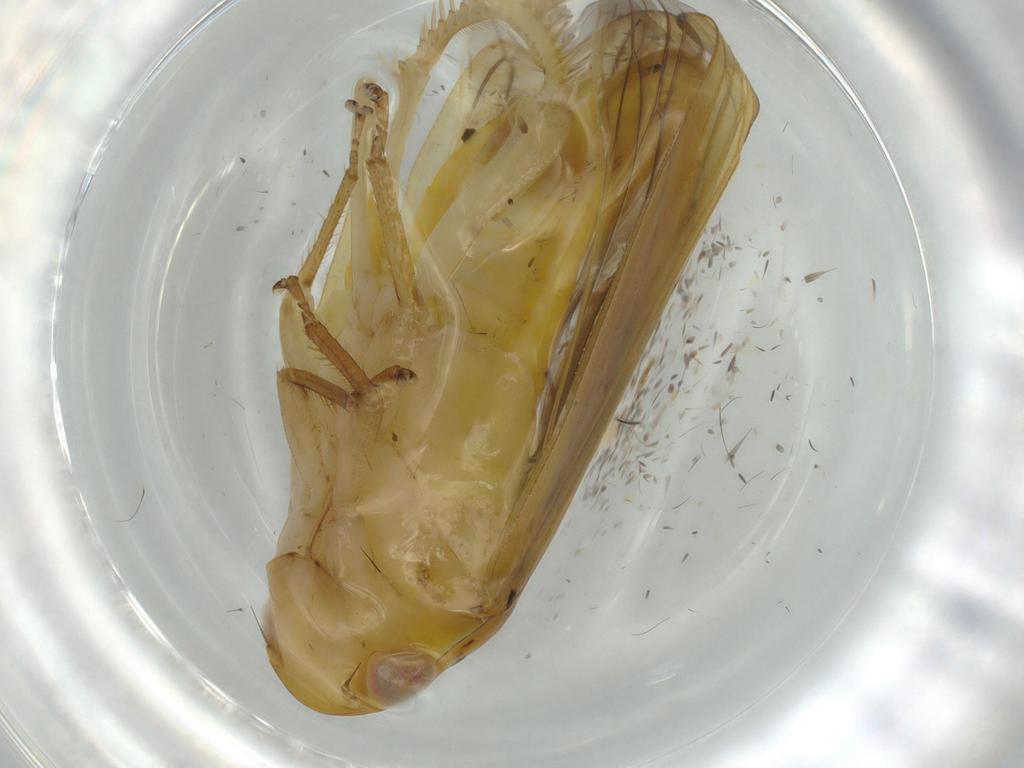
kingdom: Animalia
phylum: Arthropoda
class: Insecta
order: Hemiptera
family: Cicadellidae
